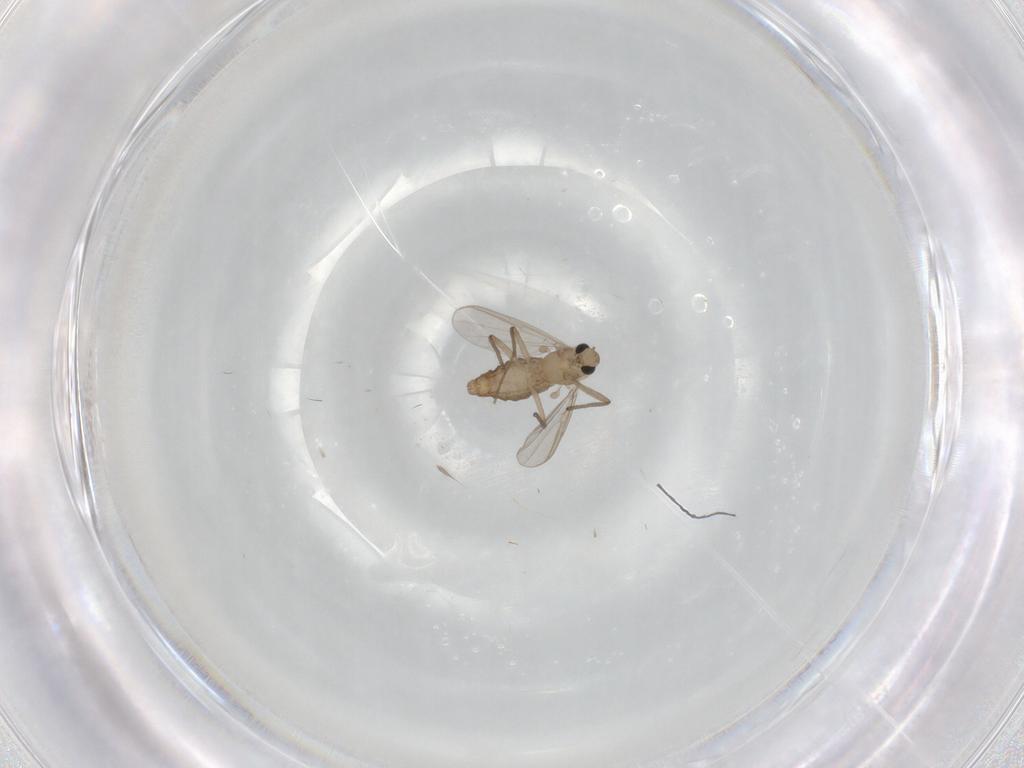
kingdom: Animalia
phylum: Arthropoda
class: Insecta
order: Diptera
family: Chironomidae
